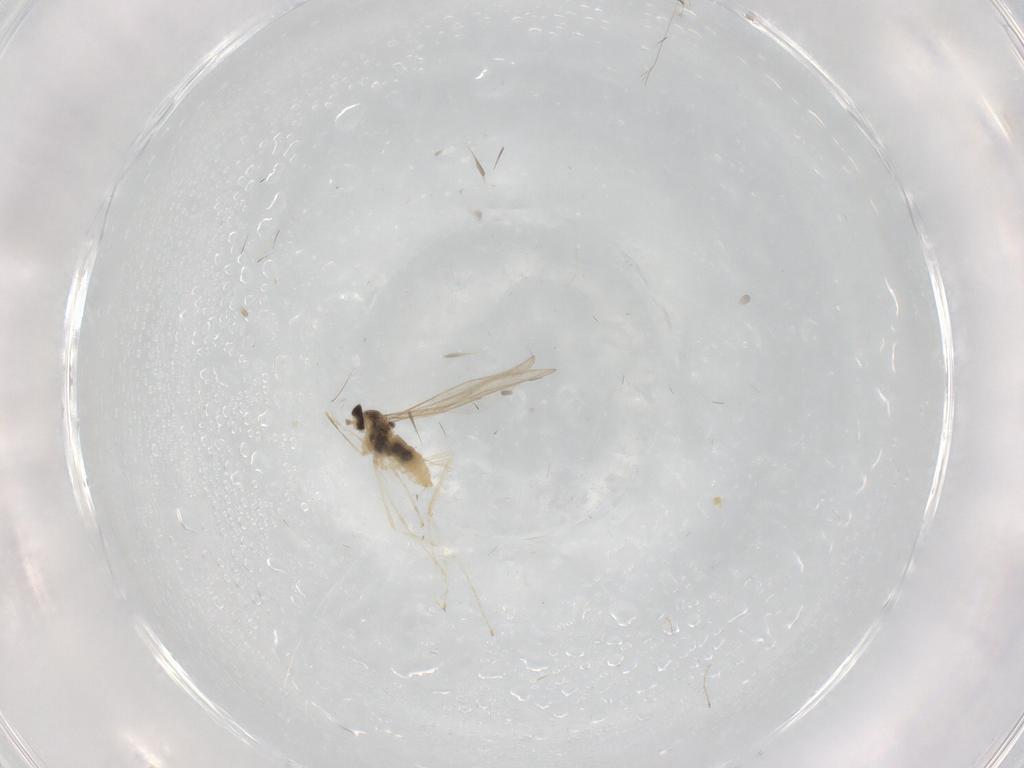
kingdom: Animalia
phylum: Arthropoda
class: Insecta
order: Diptera
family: Cecidomyiidae
